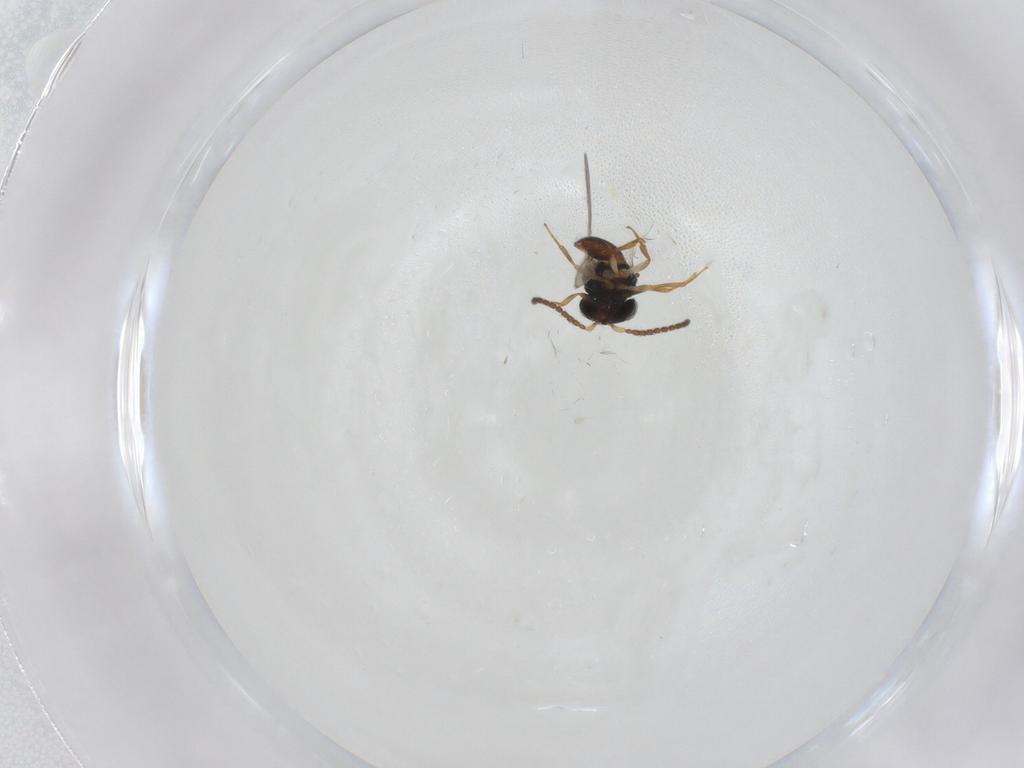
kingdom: Animalia
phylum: Arthropoda
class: Insecta
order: Hymenoptera
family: Scelionidae
